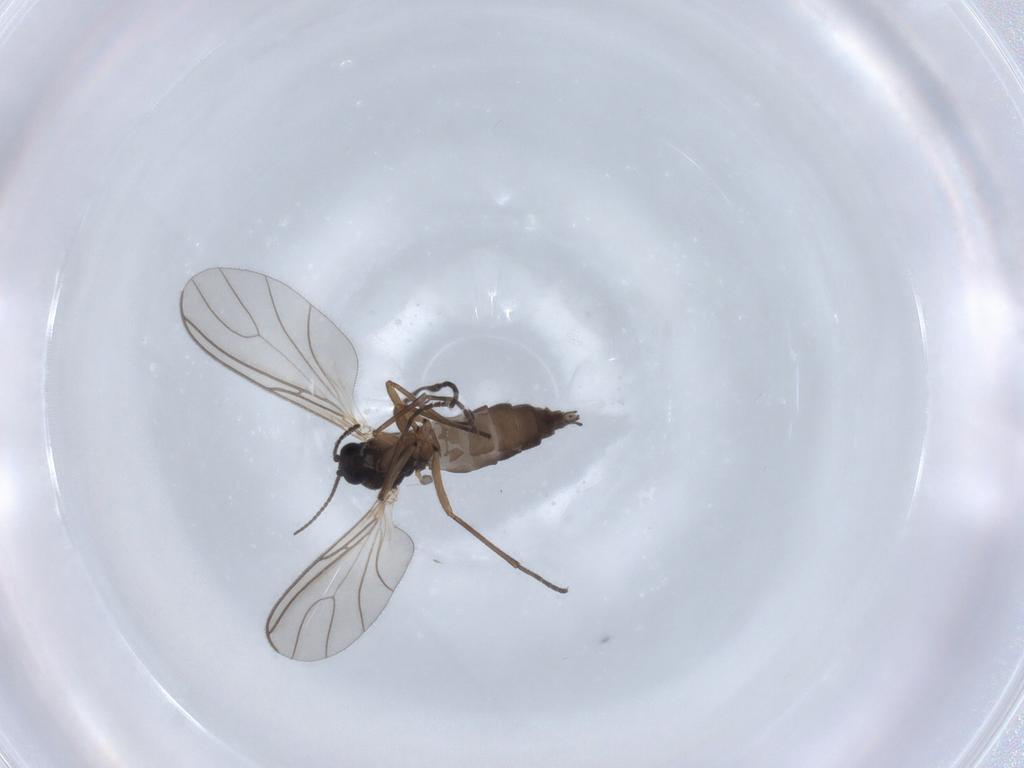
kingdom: Animalia
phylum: Arthropoda
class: Insecta
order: Diptera
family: Sciaridae
